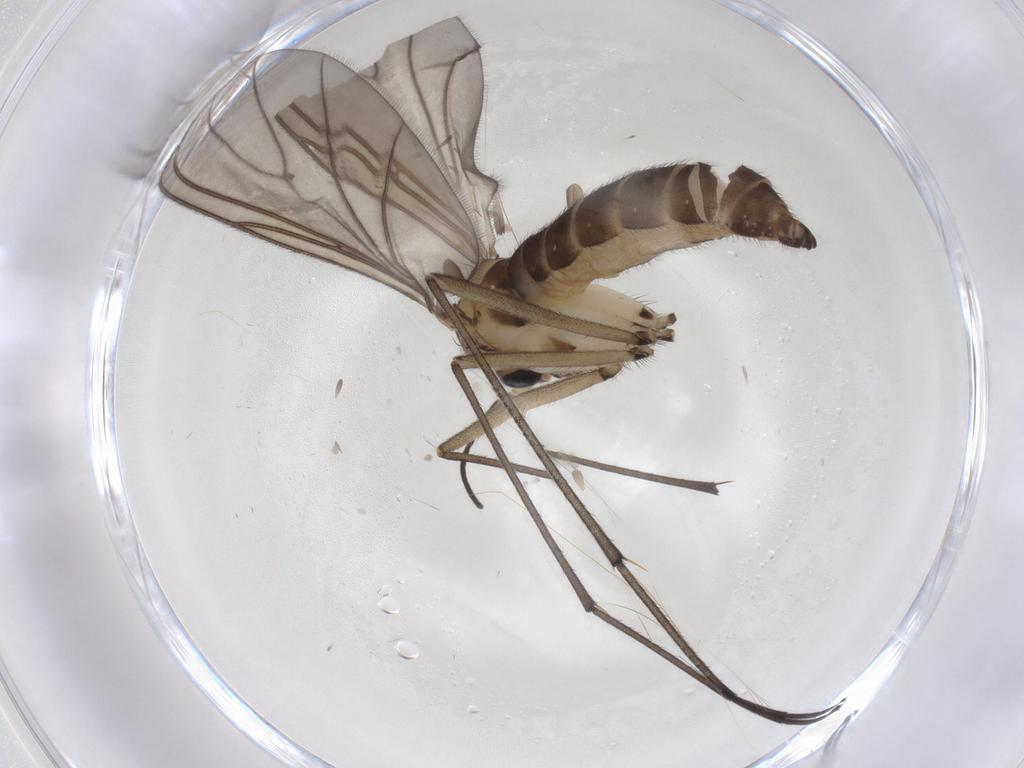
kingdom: Animalia
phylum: Arthropoda
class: Insecta
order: Diptera
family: Sciaridae
